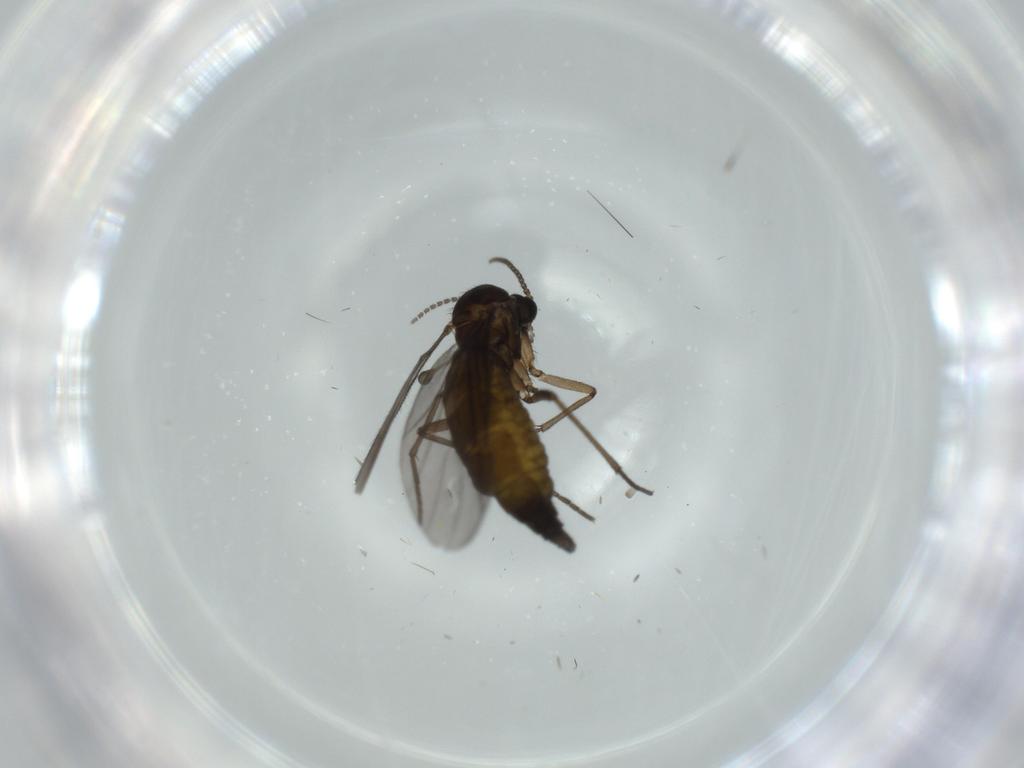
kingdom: Animalia
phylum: Arthropoda
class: Insecta
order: Diptera
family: Sciaridae
